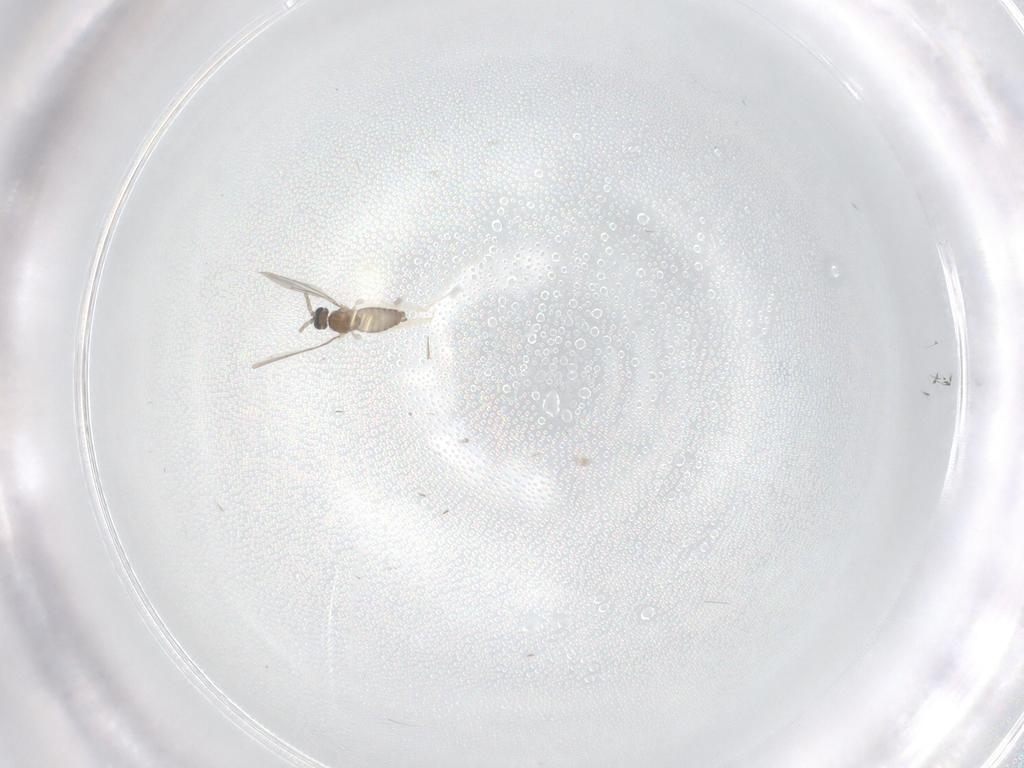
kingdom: Animalia
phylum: Arthropoda
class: Insecta
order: Diptera
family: Cecidomyiidae
